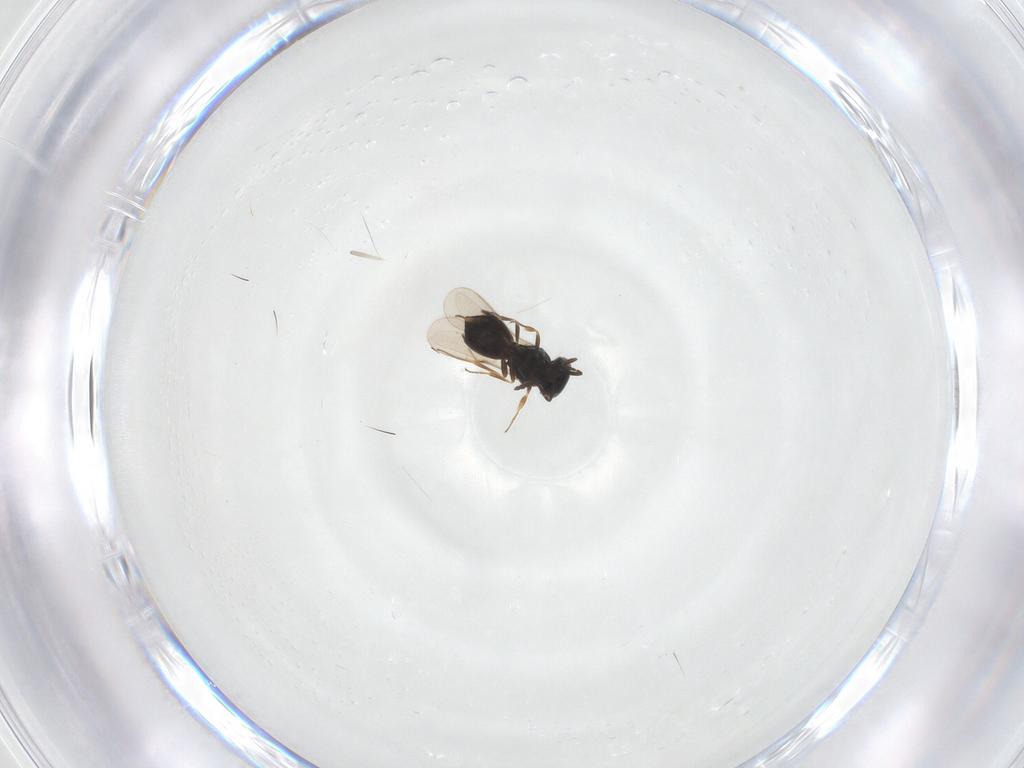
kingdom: Animalia
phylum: Arthropoda
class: Insecta
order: Hymenoptera
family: Scelionidae
